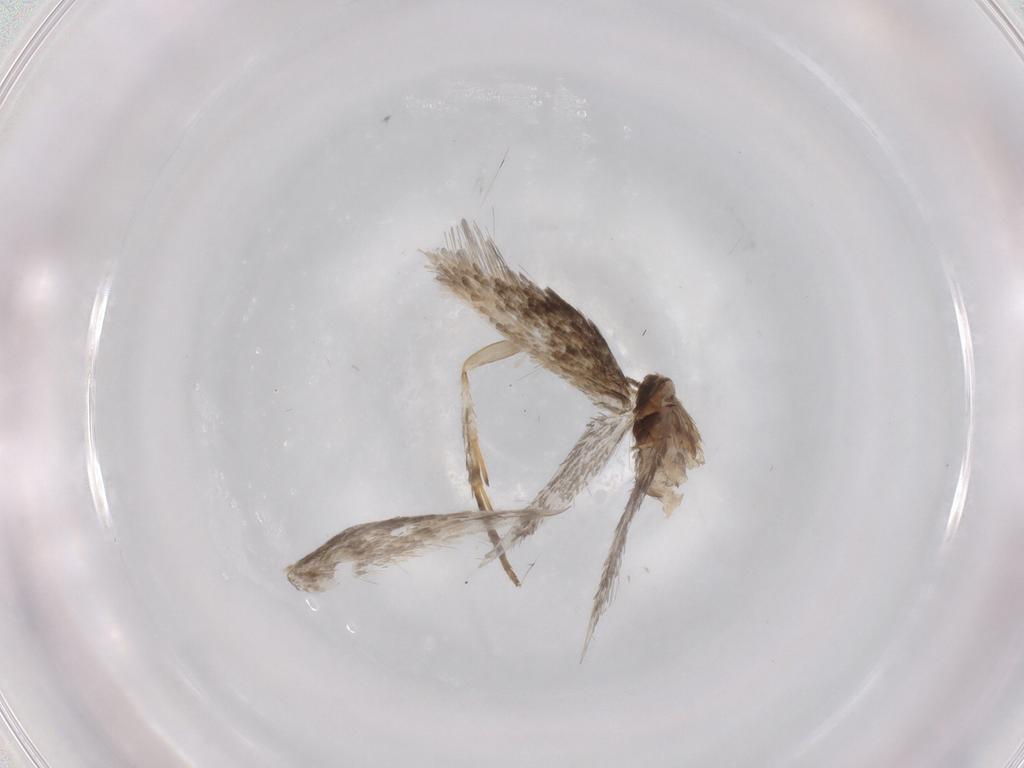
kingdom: Animalia
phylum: Arthropoda
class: Insecta
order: Lepidoptera
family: Nepticulidae
